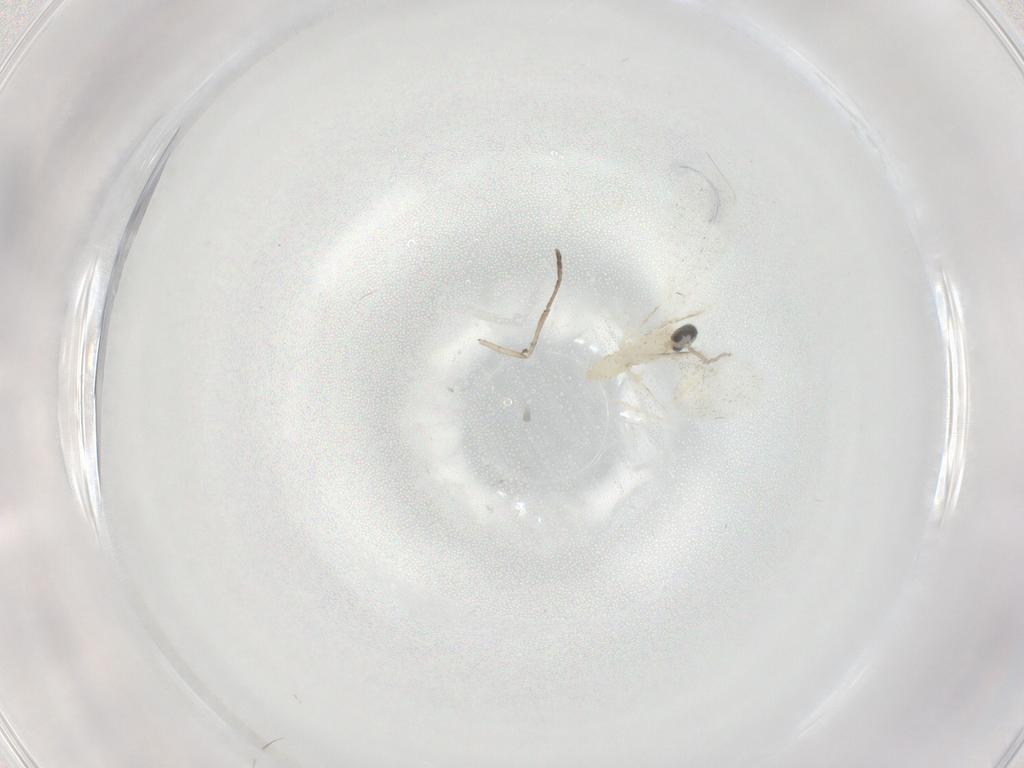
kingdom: Animalia
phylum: Arthropoda
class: Insecta
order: Diptera
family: Cecidomyiidae
